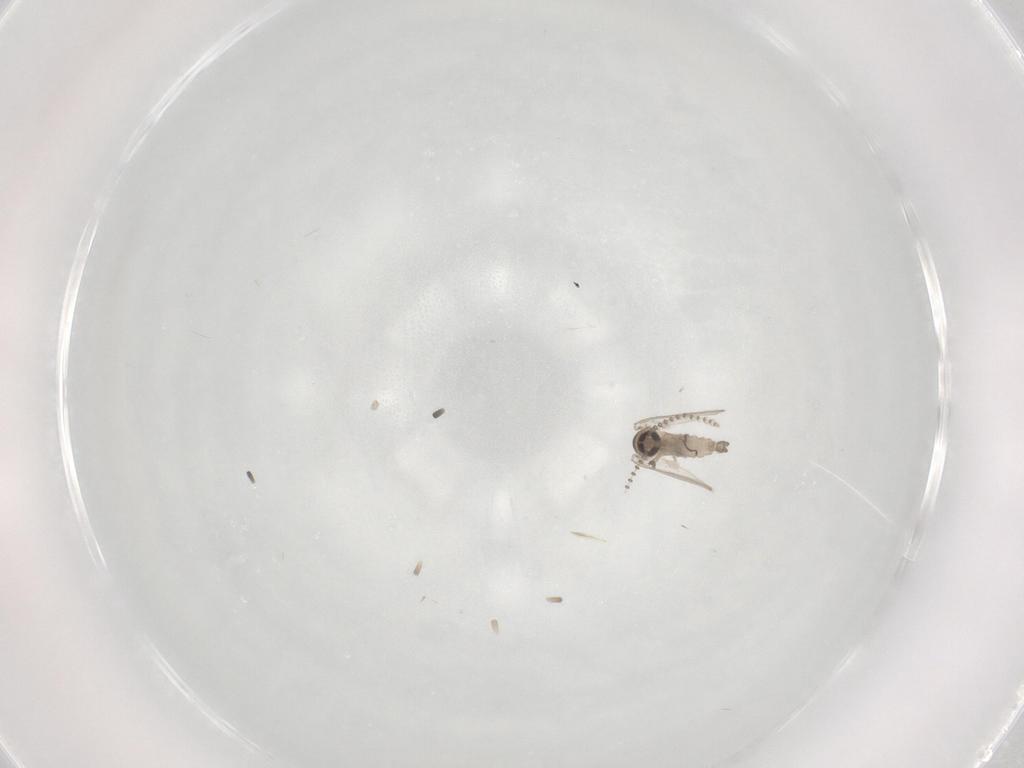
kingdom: Animalia
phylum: Arthropoda
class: Insecta
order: Diptera
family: Psychodidae
